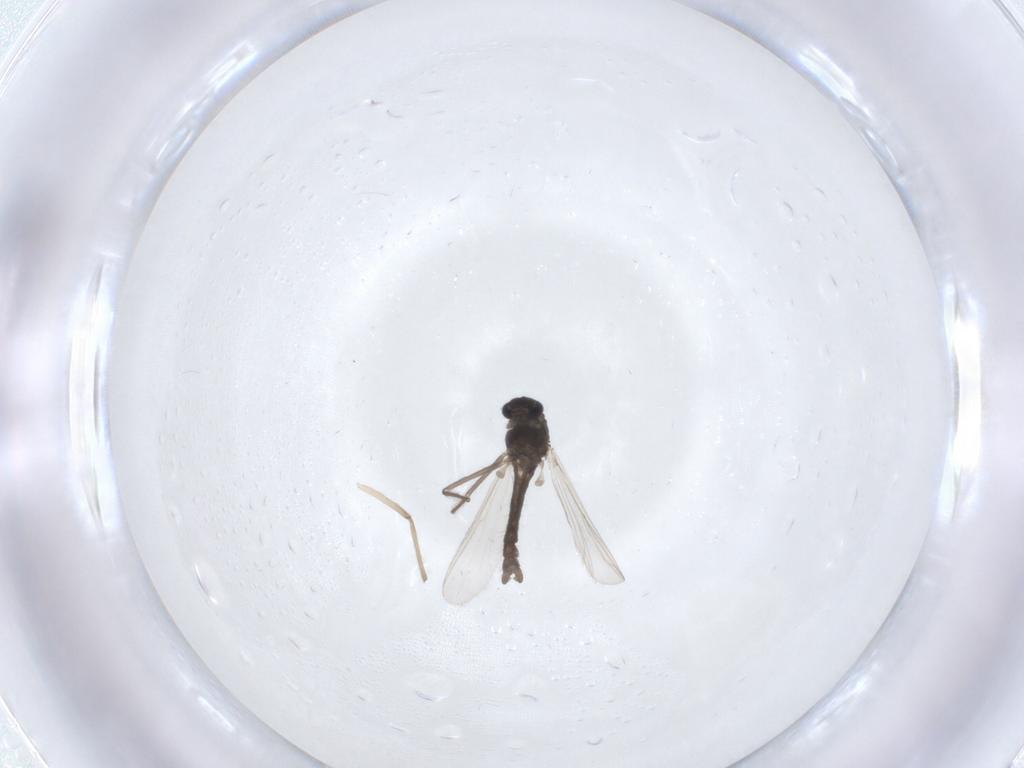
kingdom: Animalia
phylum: Arthropoda
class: Insecta
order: Diptera
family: Chironomidae
